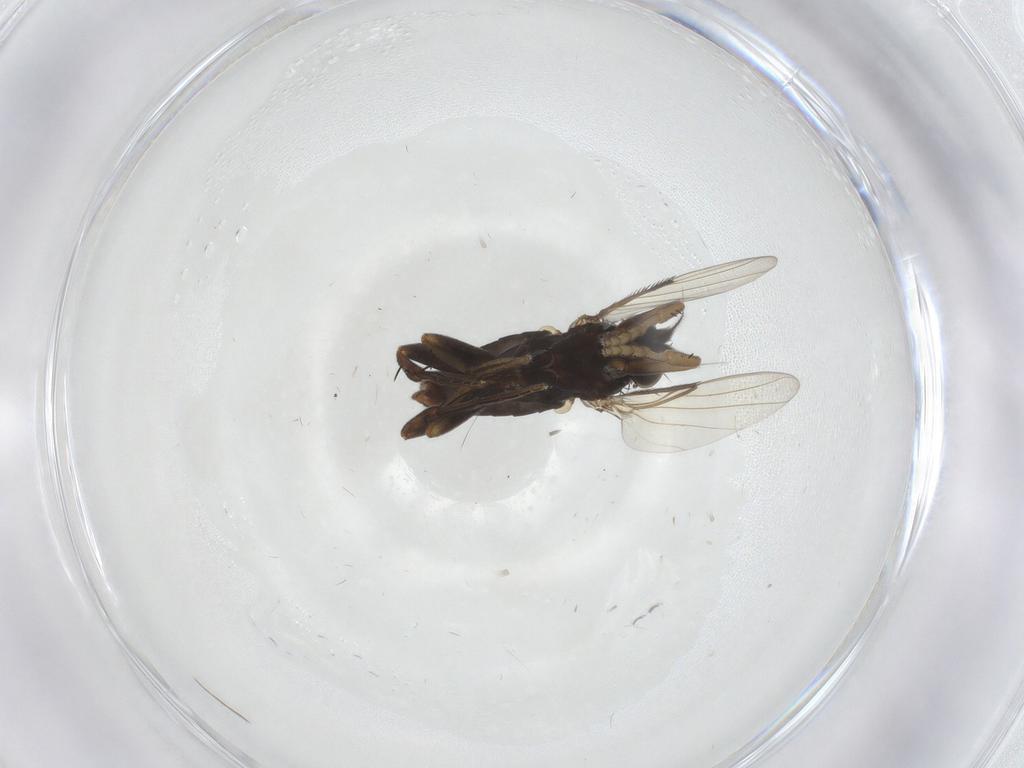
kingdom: Animalia
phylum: Arthropoda
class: Insecta
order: Diptera
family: Phoridae
